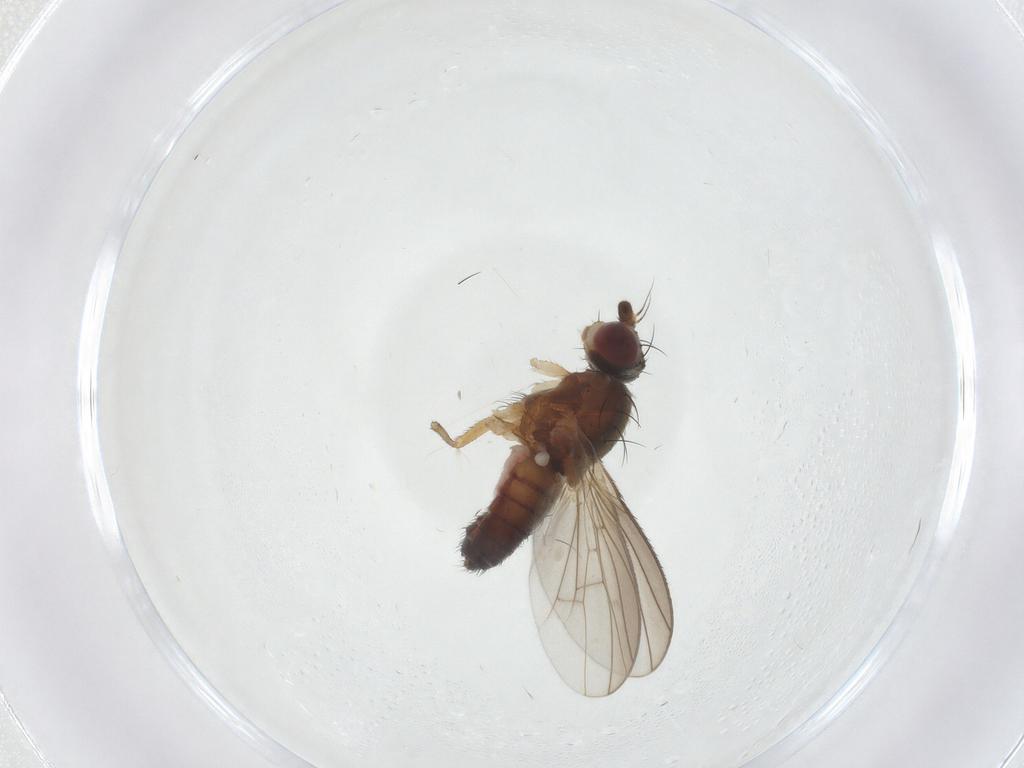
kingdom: Animalia
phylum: Arthropoda
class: Insecta
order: Diptera
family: Heleomyzidae
